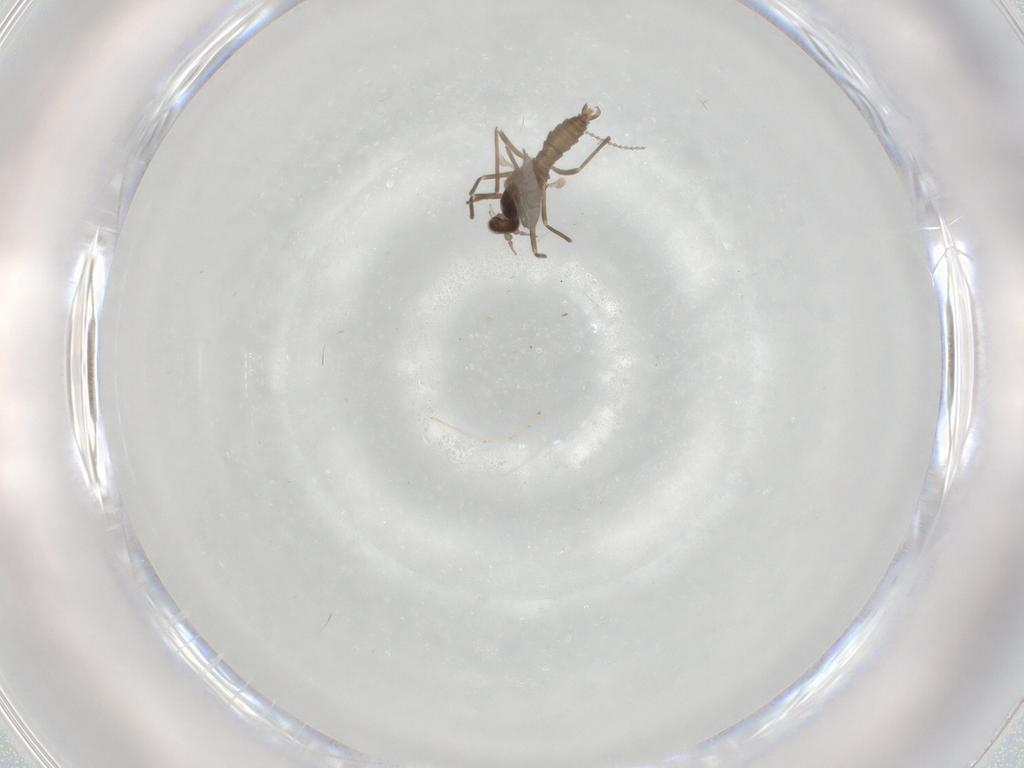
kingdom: Animalia
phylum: Arthropoda
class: Insecta
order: Diptera
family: Cecidomyiidae
